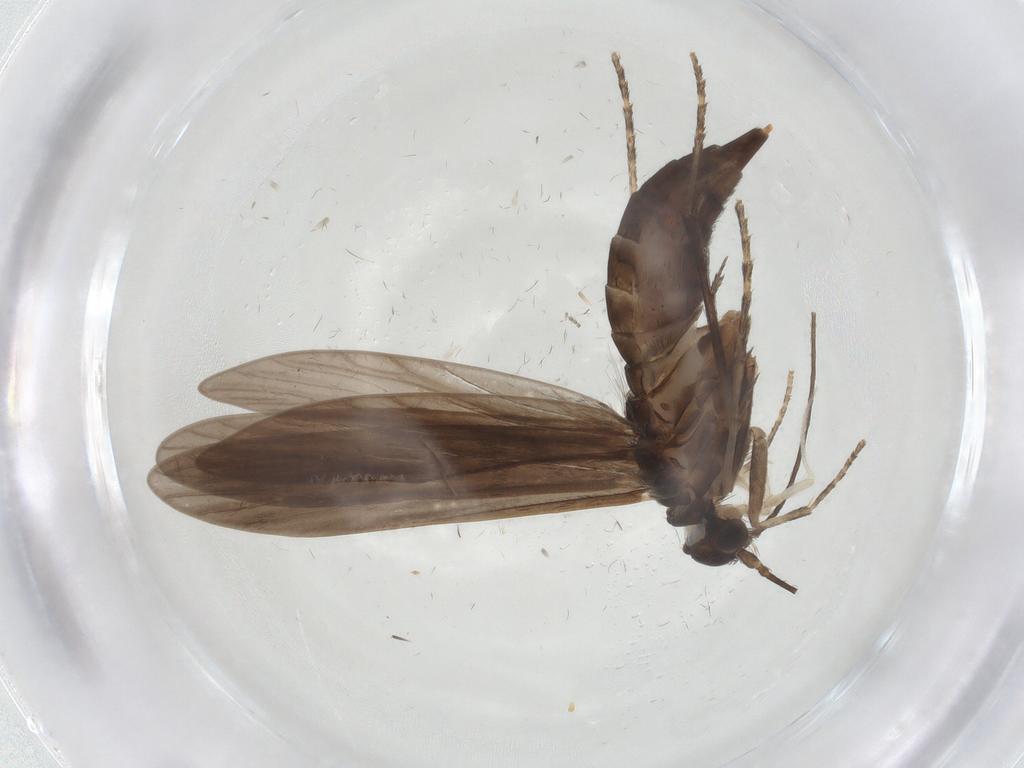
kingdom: Animalia
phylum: Arthropoda
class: Insecta
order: Trichoptera
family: Xiphocentronidae
